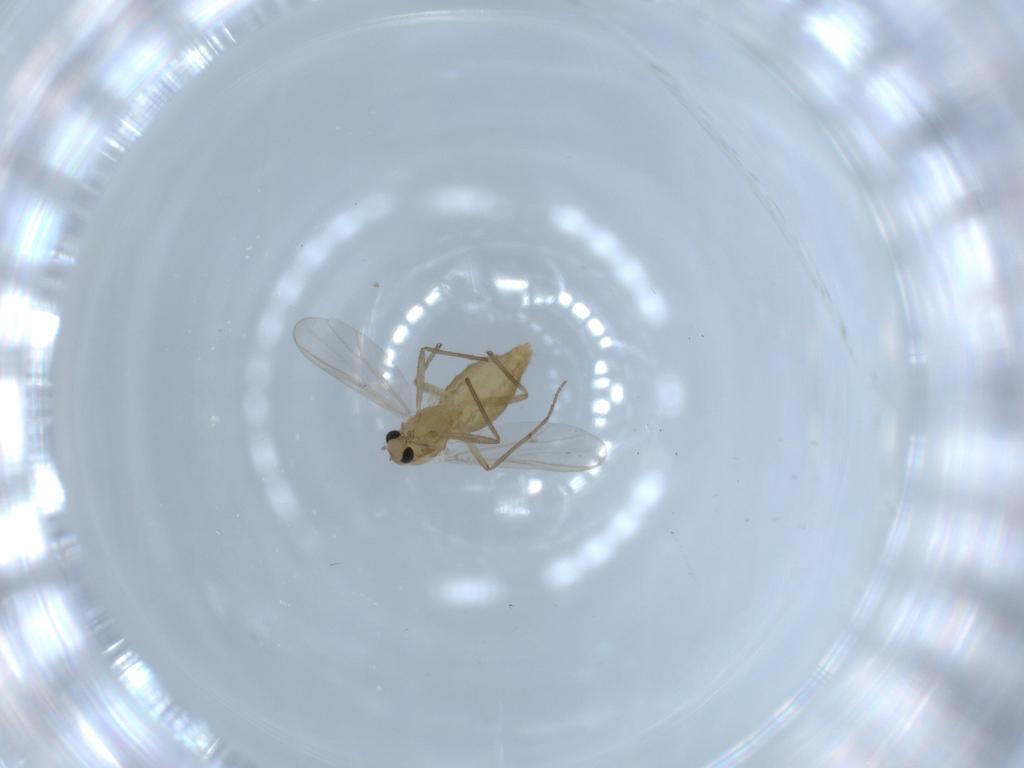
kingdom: Animalia
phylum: Arthropoda
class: Insecta
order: Diptera
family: Chironomidae
